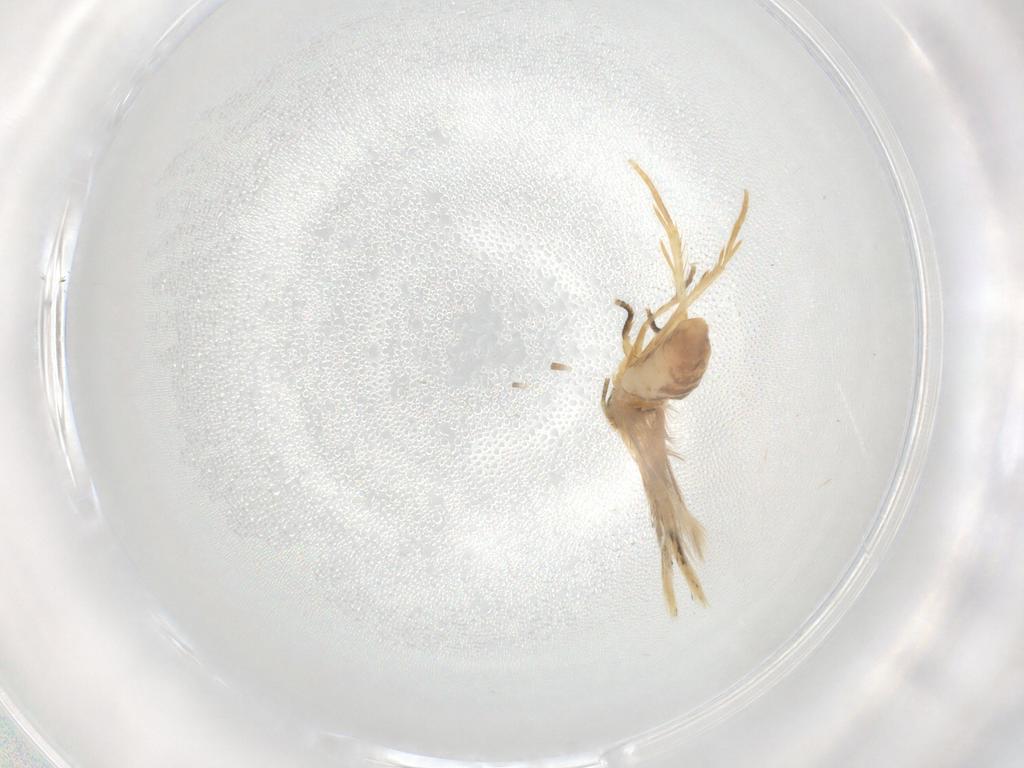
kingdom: Animalia
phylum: Arthropoda
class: Insecta
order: Lepidoptera
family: Nepticulidae
